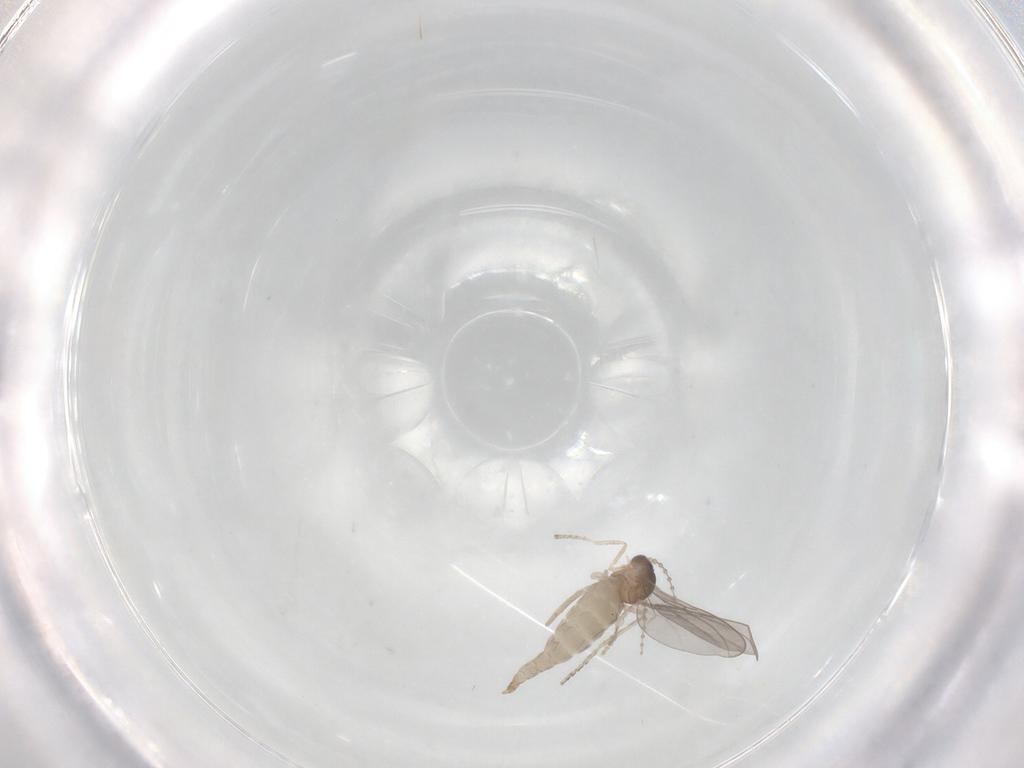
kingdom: Animalia
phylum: Arthropoda
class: Insecta
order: Diptera
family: Cecidomyiidae
